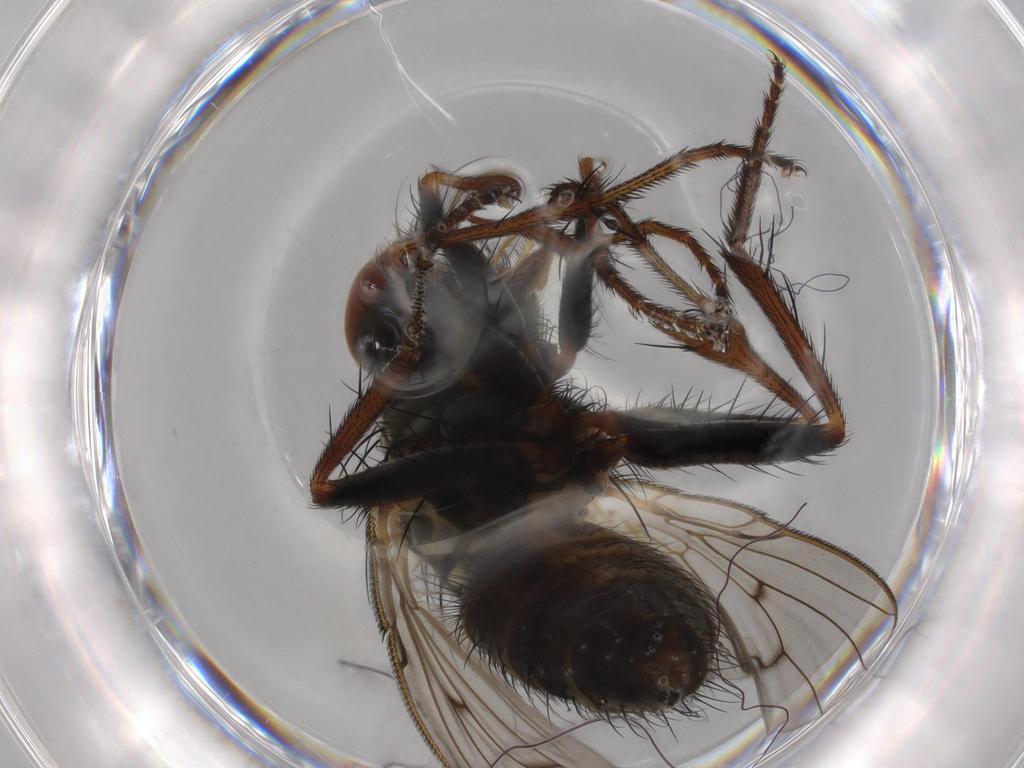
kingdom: Animalia
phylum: Arthropoda
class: Insecta
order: Diptera
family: Muscidae
